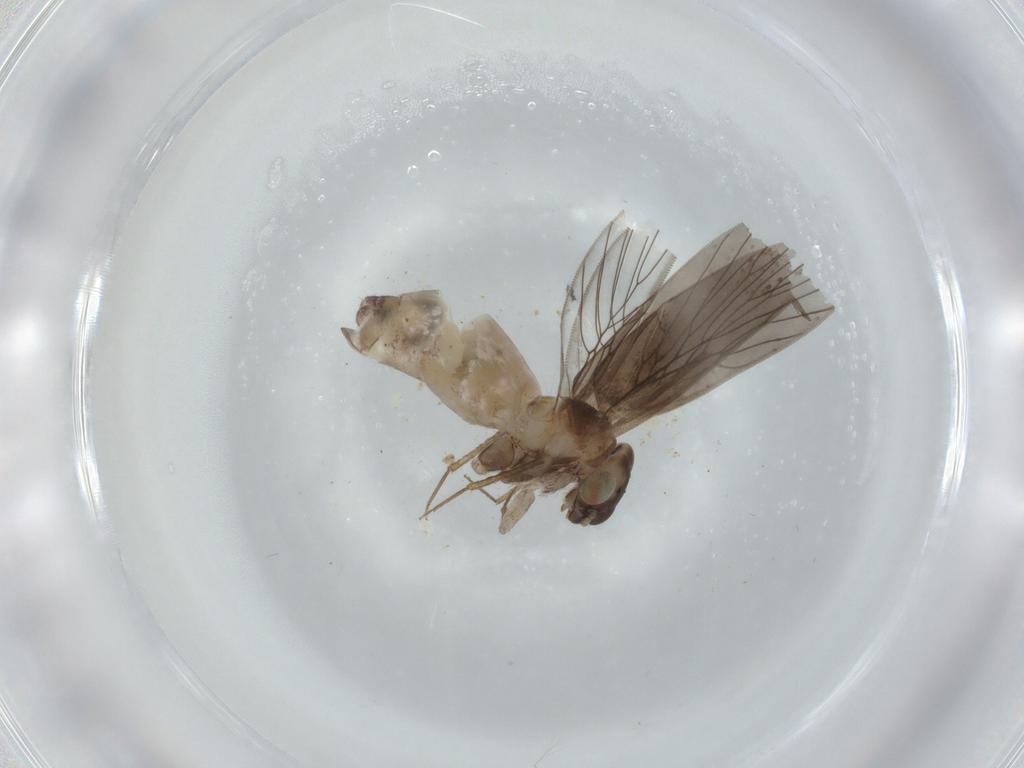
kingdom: Animalia
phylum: Arthropoda
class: Insecta
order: Psocodea
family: Lepidopsocidae
